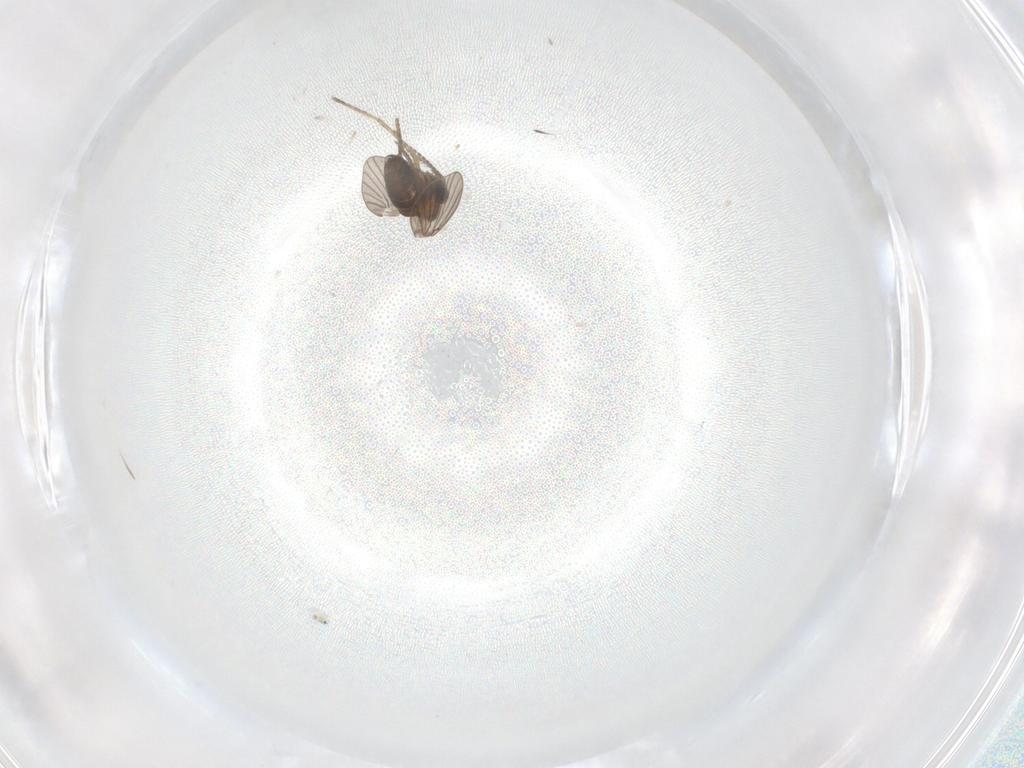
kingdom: Animalia
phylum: Arthropoda
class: Insecta
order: Diptera
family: Ceratopogonidae
